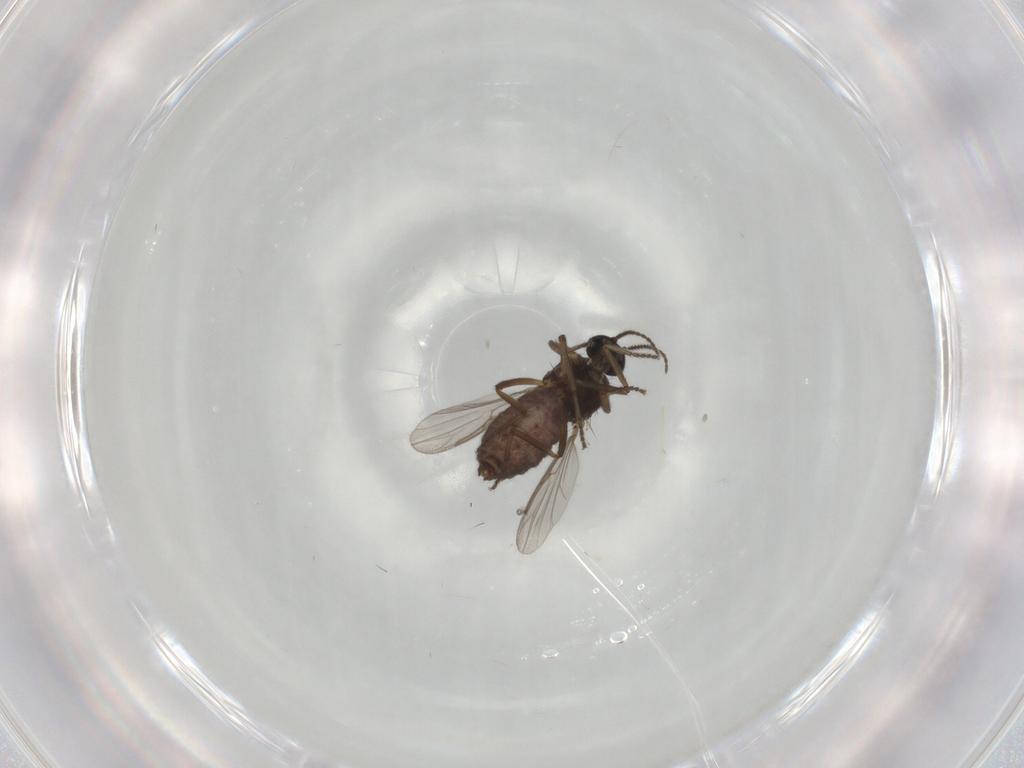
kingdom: Animalia
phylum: Arthropoda
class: Insecta
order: Diptera
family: Ceratopogonidae
